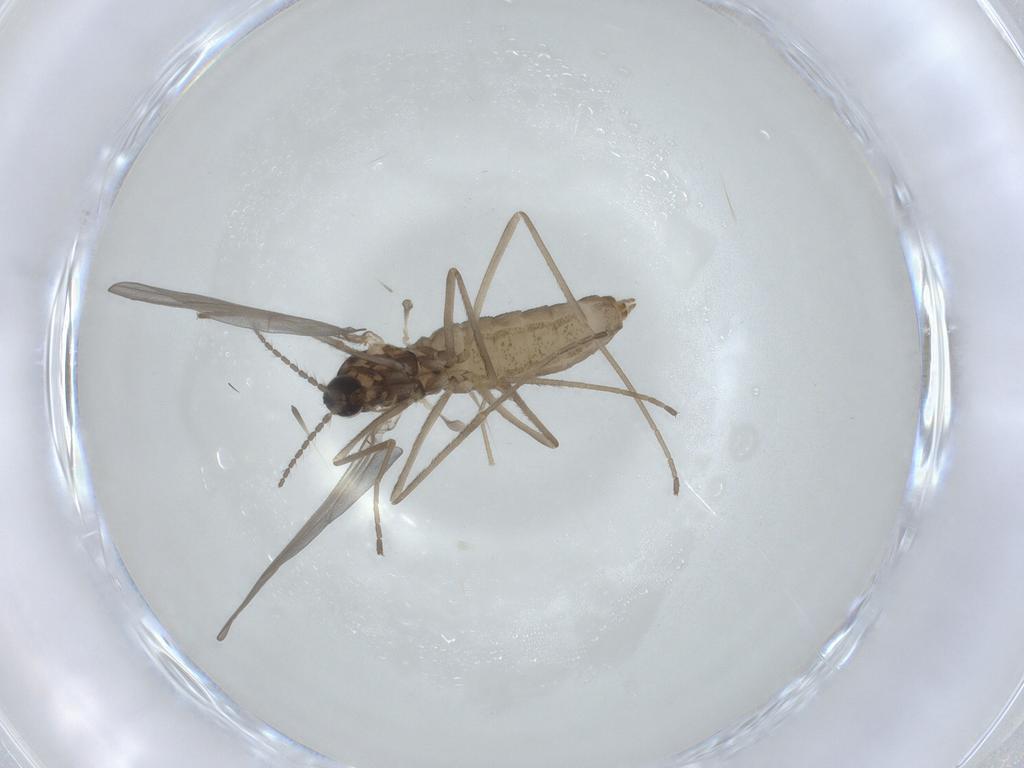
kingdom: Animalia
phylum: Arthropoda
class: Insecta
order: Diptera
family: Cecidomyiidae
